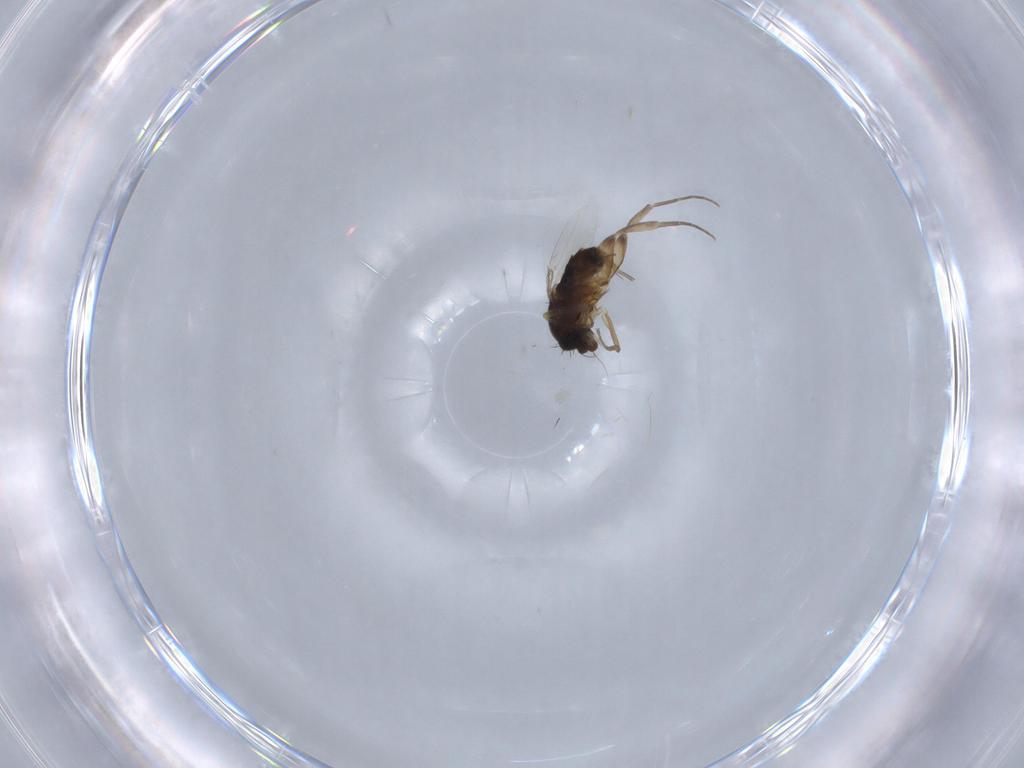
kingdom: Animalia
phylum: Arthropoda
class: Insecta
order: Diptera
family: Phoridae
